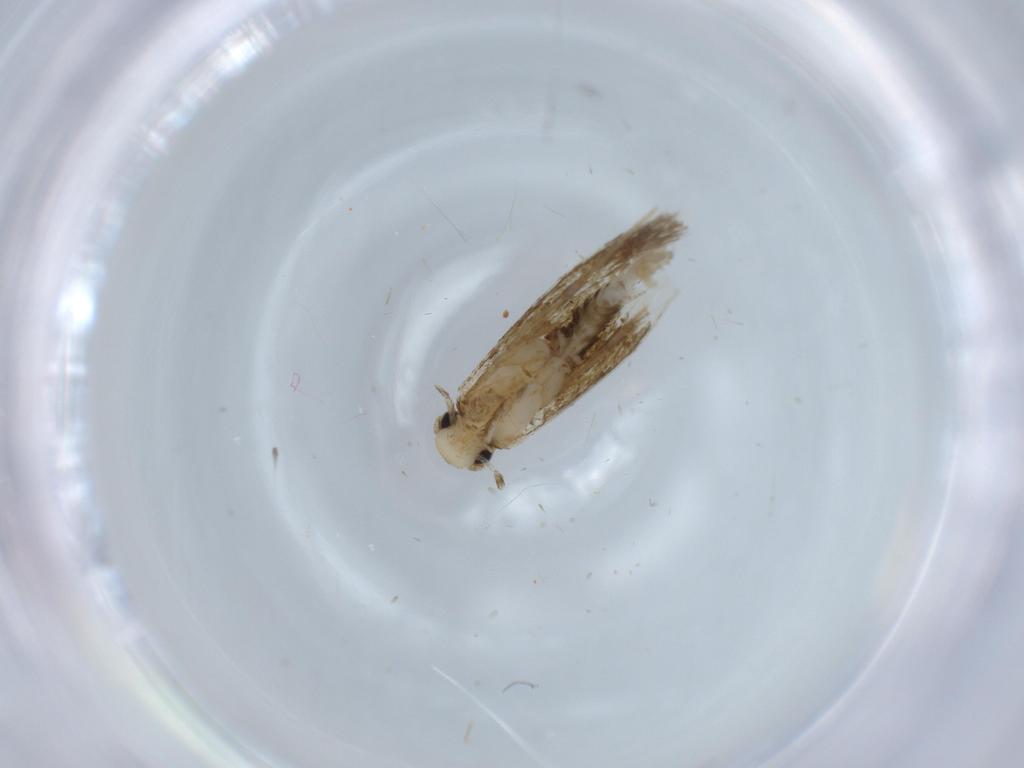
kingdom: Animalia
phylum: Arthropoda
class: Insecta
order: Lepidoptera
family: Tineidae
